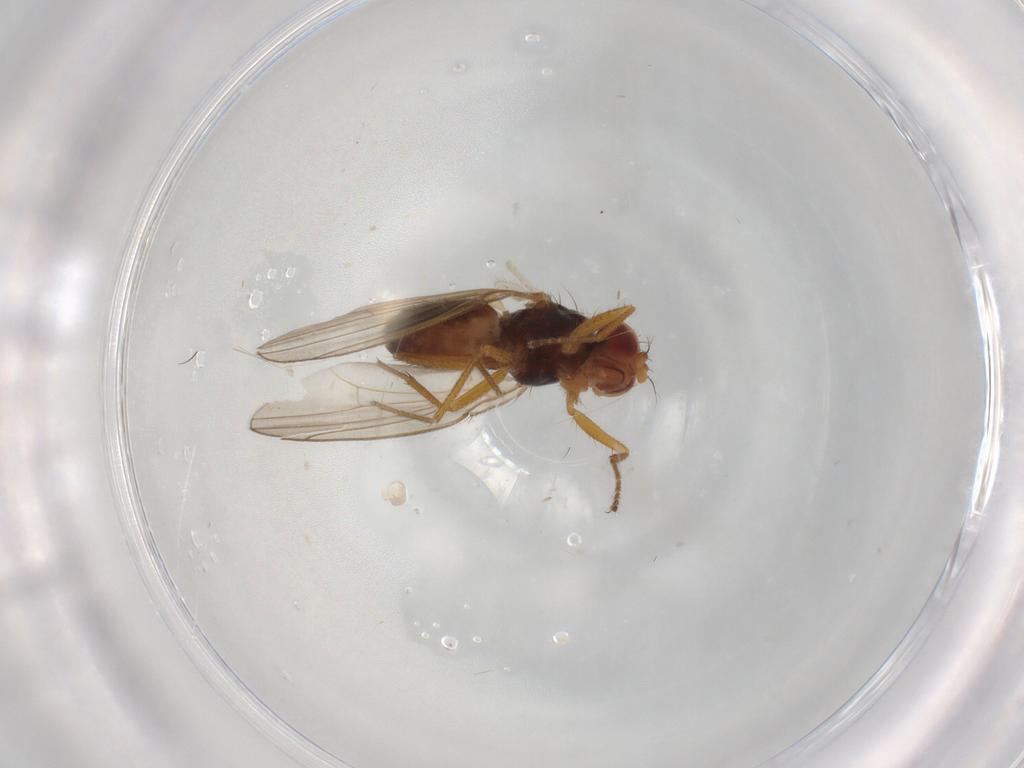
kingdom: Animalia
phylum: Arthropoda
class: Insecta
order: Diptera
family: Drosophilidae
